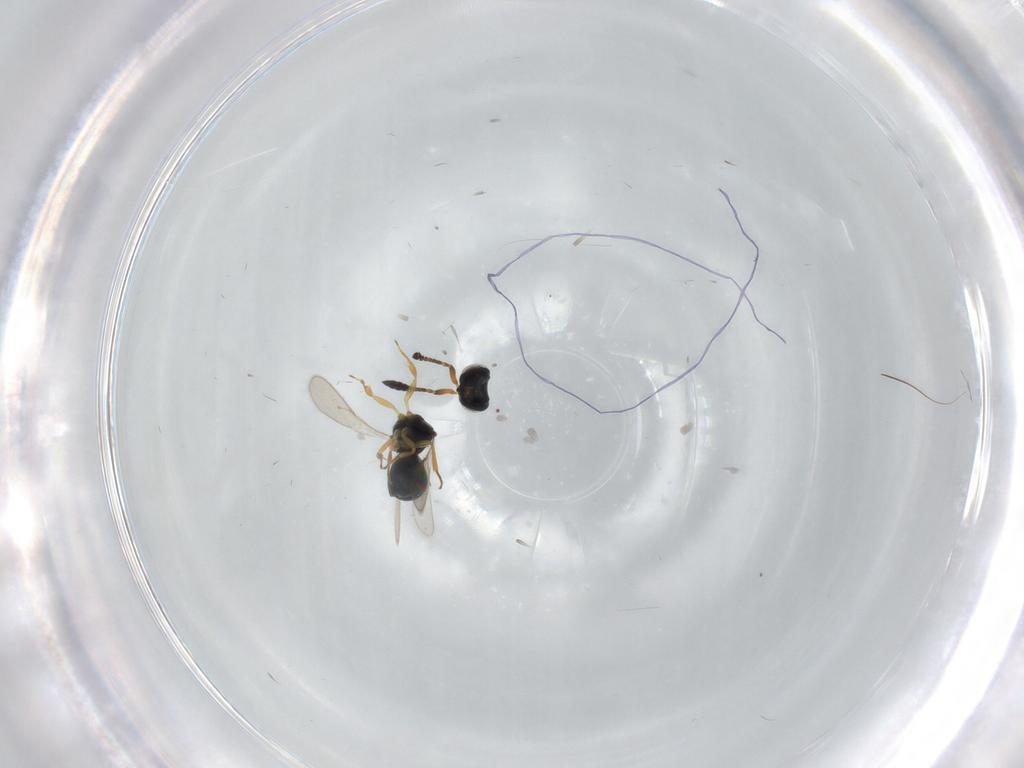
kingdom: Animalia
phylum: Arthropoda
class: Insecta
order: Hymenoptera
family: Scelionidae
